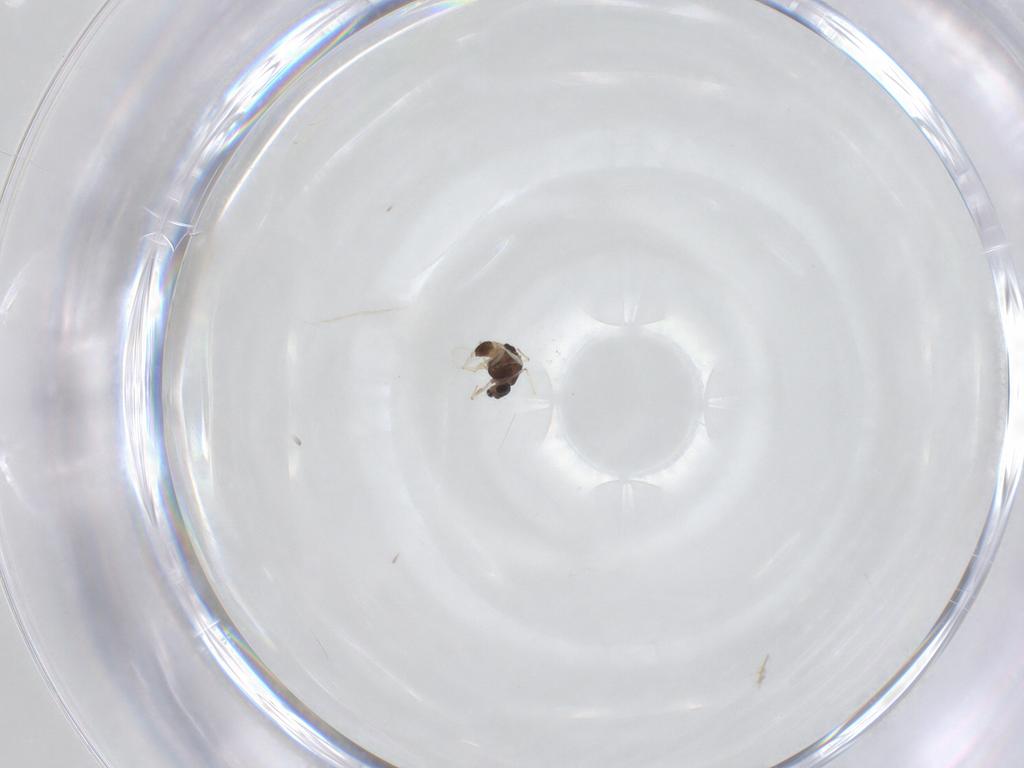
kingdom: Animalia
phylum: Arthropoda
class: Insecta
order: Diptera
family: Chironomidae
